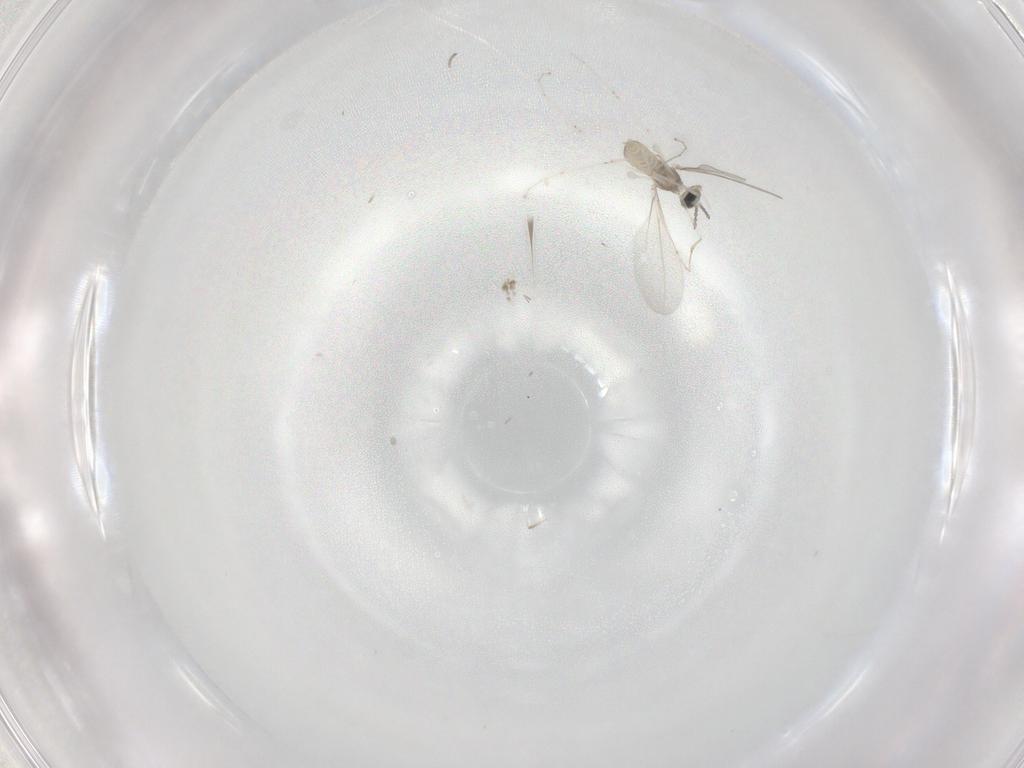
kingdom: Animalia
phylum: Arthropoda
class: Insecta
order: Diptera
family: Cecidomyiidae
